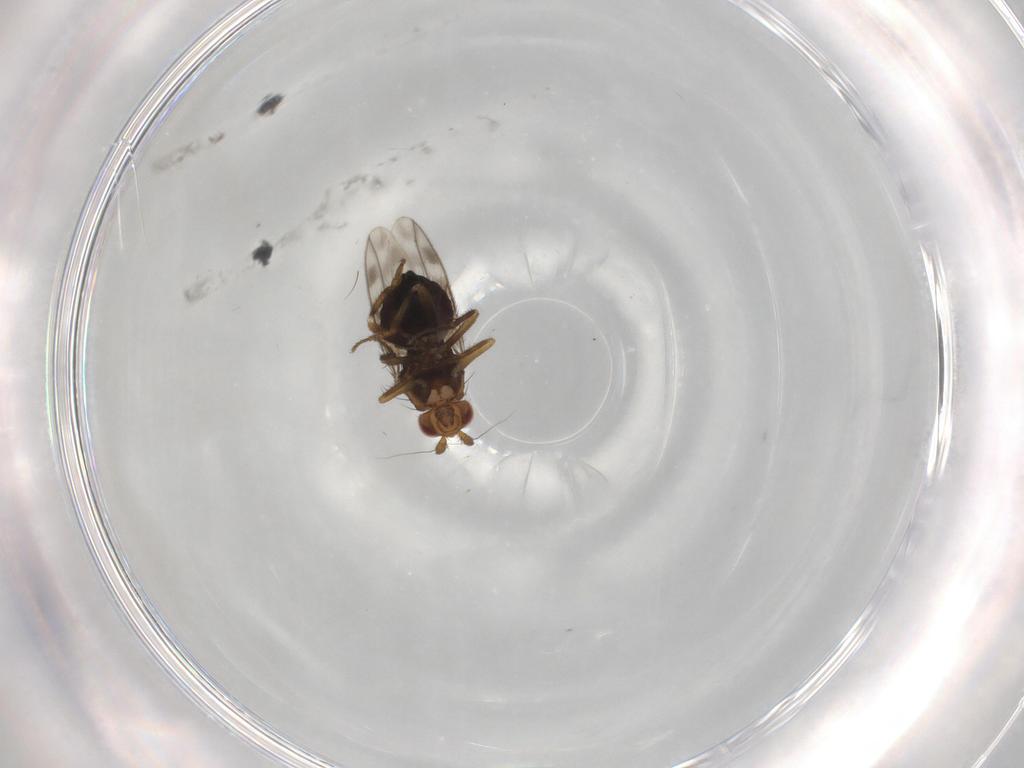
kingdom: Animalia
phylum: Arthropoda
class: Insecta
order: Diptera
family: Sphaeroceridae
